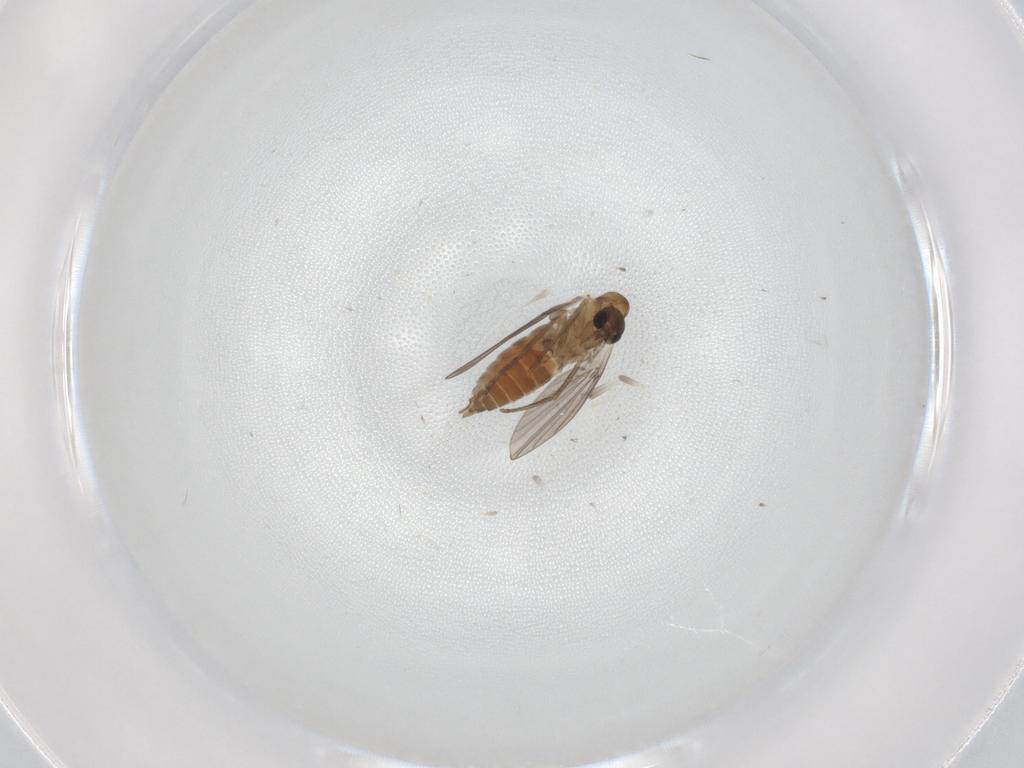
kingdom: Animalia
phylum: Arthropoda
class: Insecta
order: Diptera
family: Psychodidae
